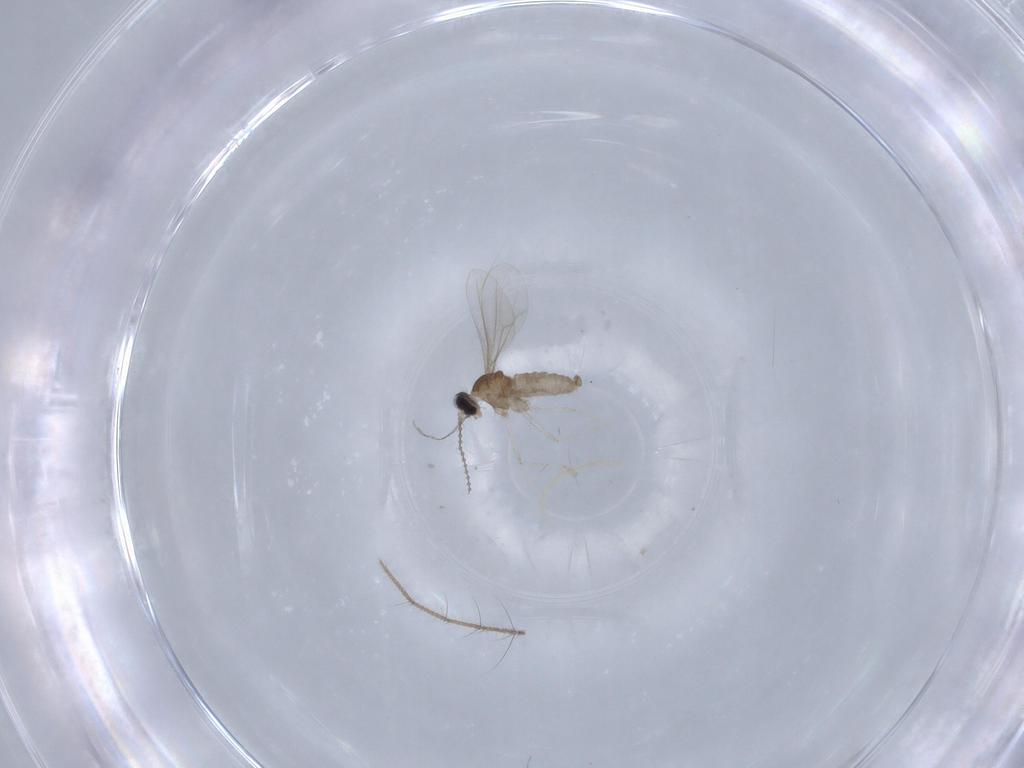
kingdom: Animalia
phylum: Arthropoda
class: Insecta
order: Diptera
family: Cecidomyiidae
